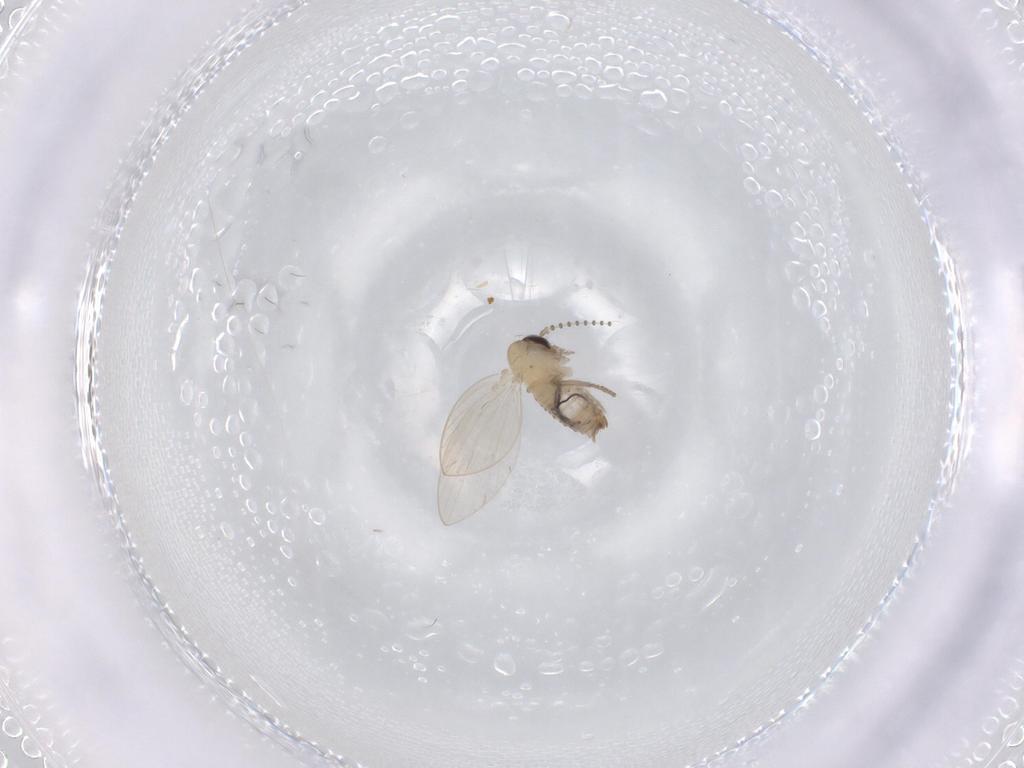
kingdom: Animalia
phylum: Arthropoda
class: Insecta
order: Diptera
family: Psychodidae
